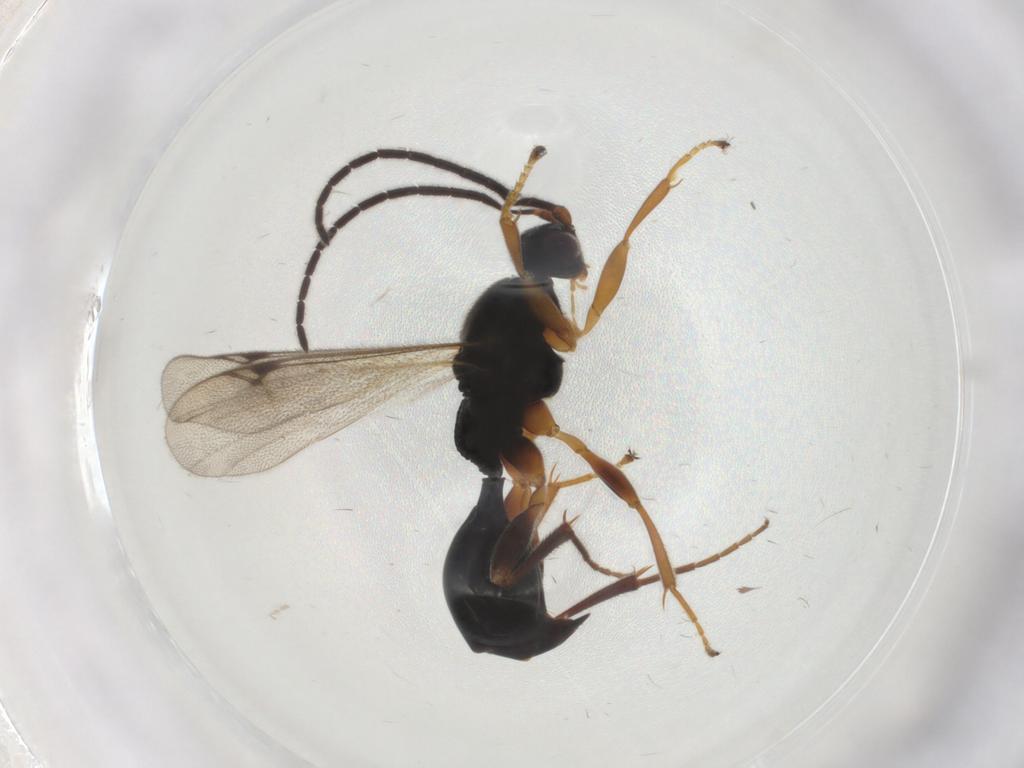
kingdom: Animalia
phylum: Arthropoda
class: Insecta
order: Hymenoptera
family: Proctotrupidae
